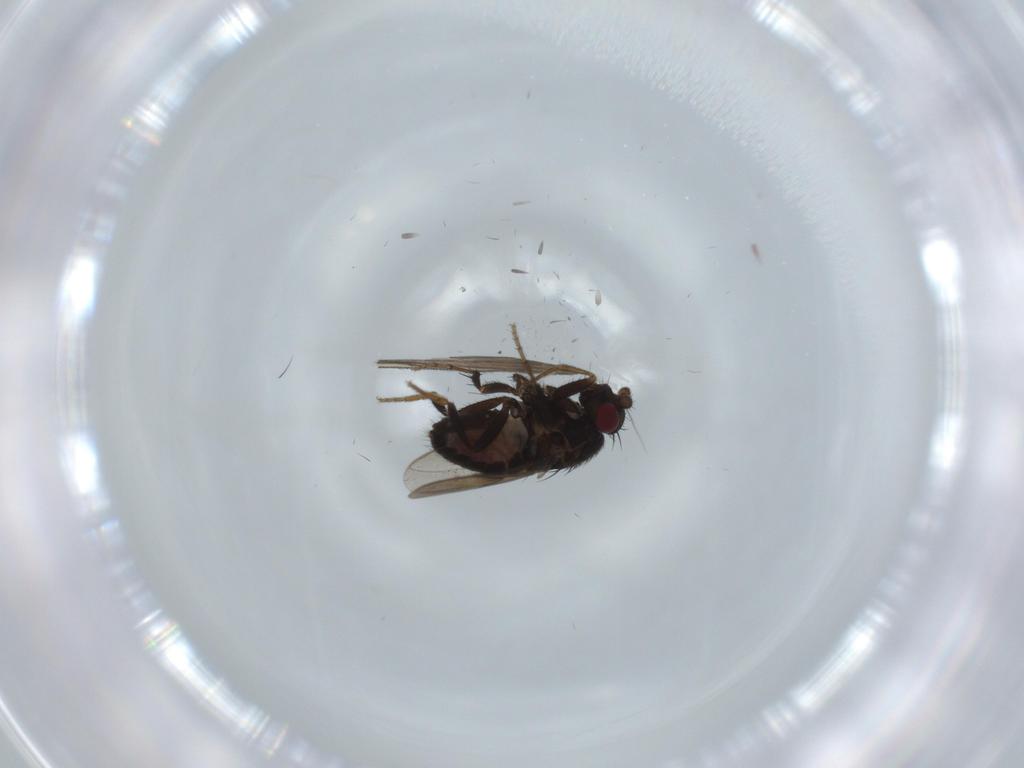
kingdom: Animalia
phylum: Arthropoda
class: Insecta
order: Diptera
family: Sphaeroceridae
